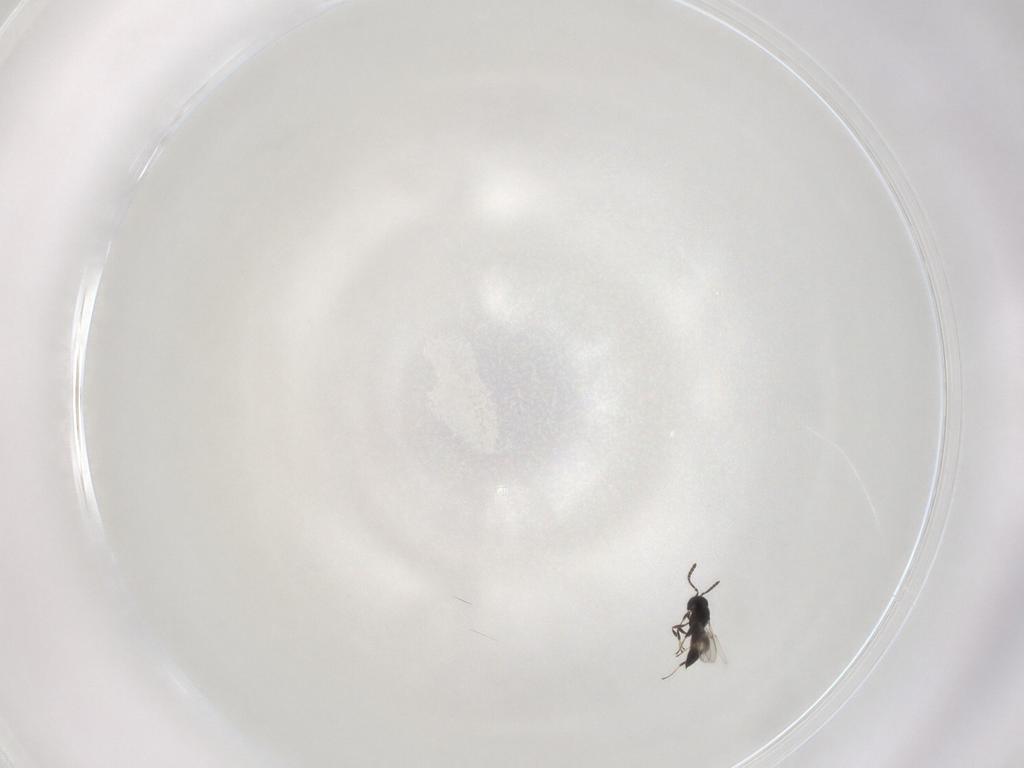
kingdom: Animalia
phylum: Arthropoda
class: Insecta
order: Hymenoptera
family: Scelionidae
